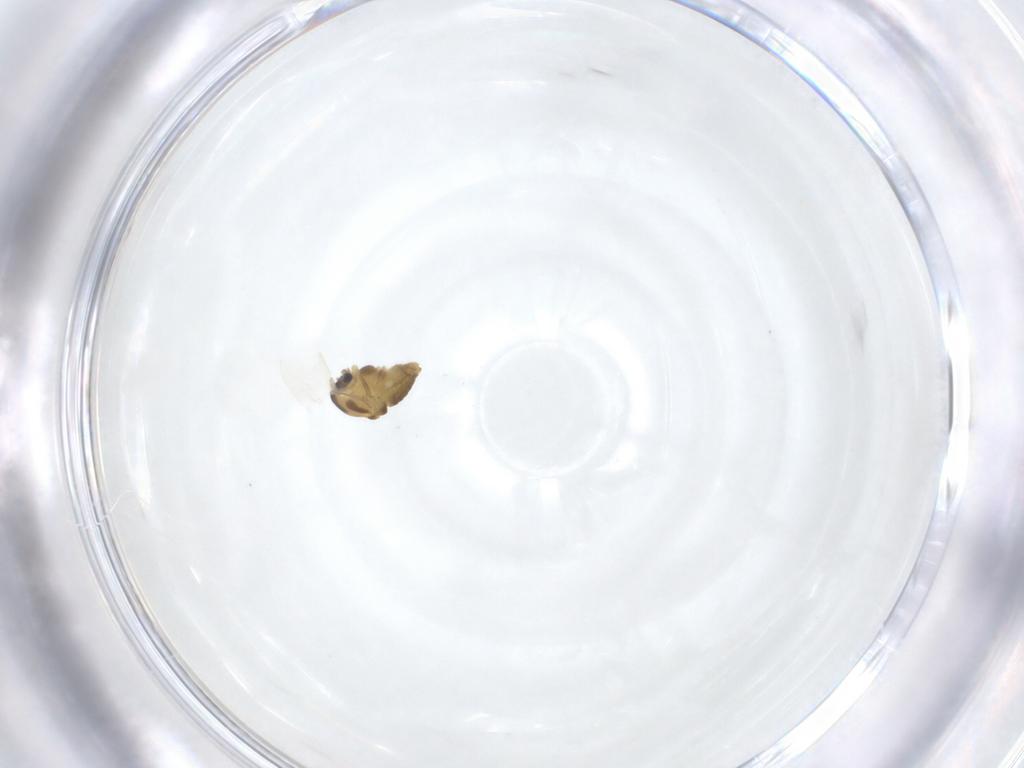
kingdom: Animalia
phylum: Arthropoda
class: Insecta
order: Diptera
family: Chironomidae
